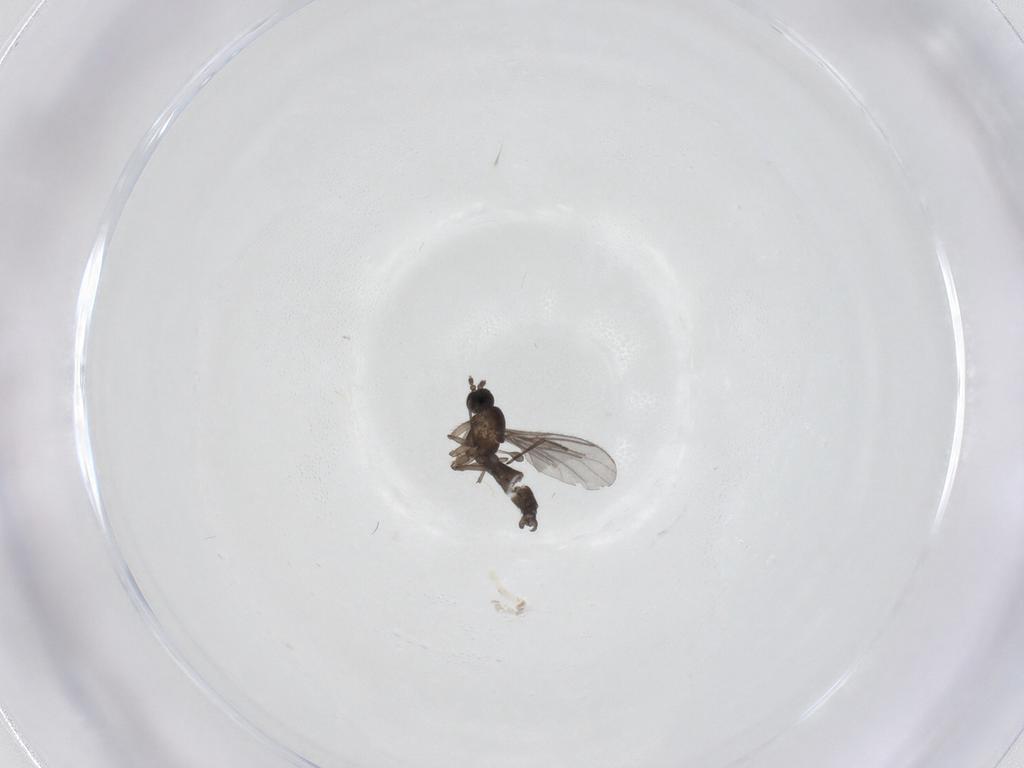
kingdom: Animalia
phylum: Arthropoda
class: Insecta
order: Diptera
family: Sciaridae
